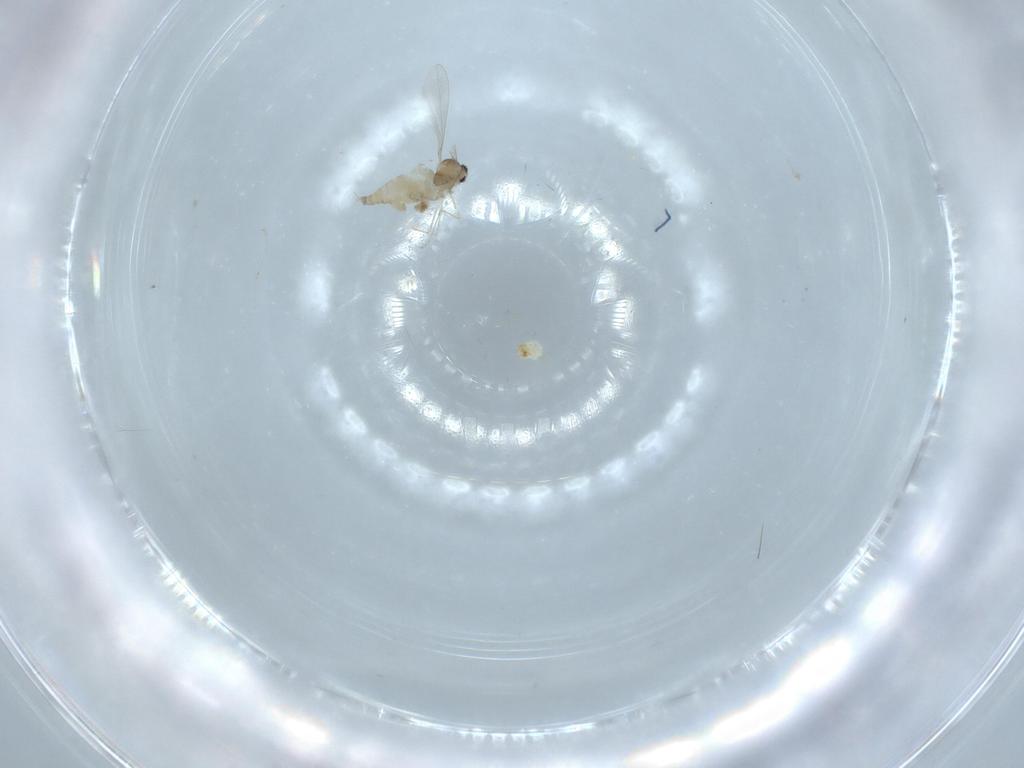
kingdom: Animalia
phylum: Arthropoda
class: Insecta
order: Diptera
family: Cecidomyiidae
